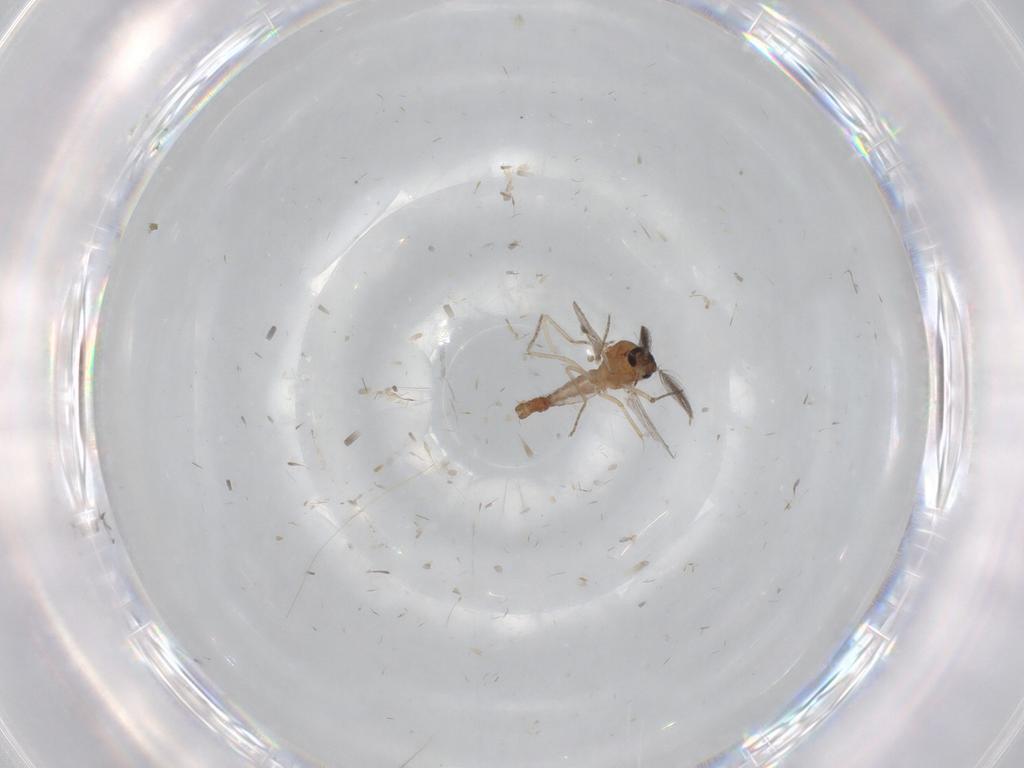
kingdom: Animalia
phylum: Arthropoda
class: Insecta
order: Diptera
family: Ceratopogonidae
